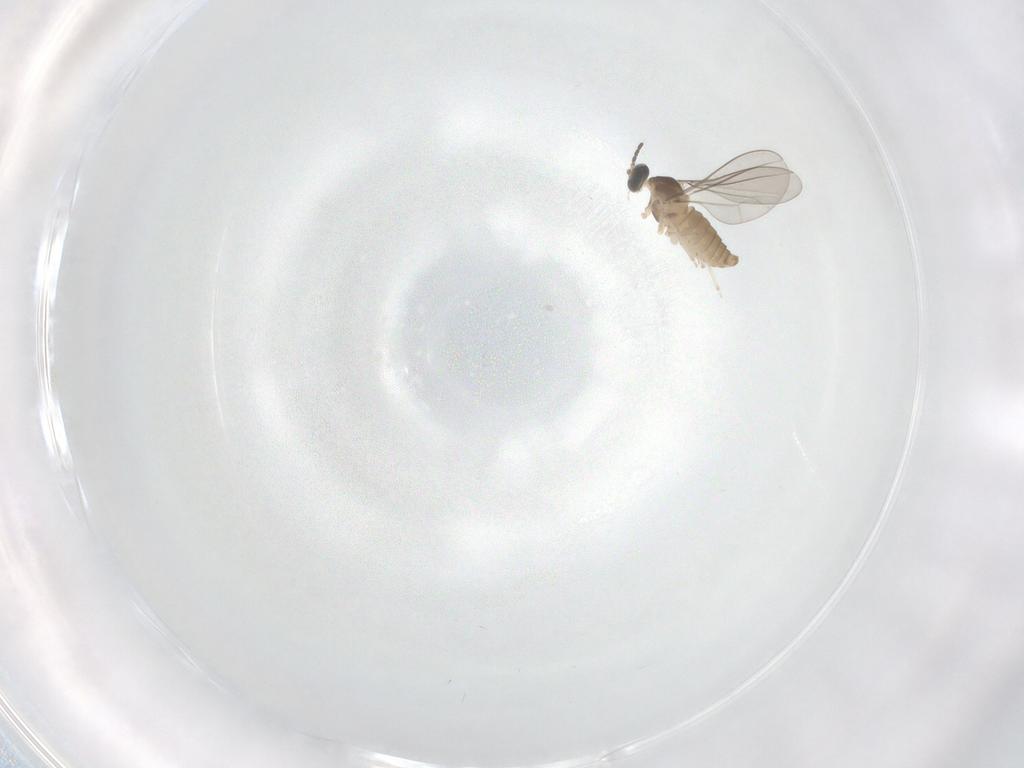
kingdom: Animalia
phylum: Arthropoda
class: Insecta
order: Diptera
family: Cecidomyiidae
